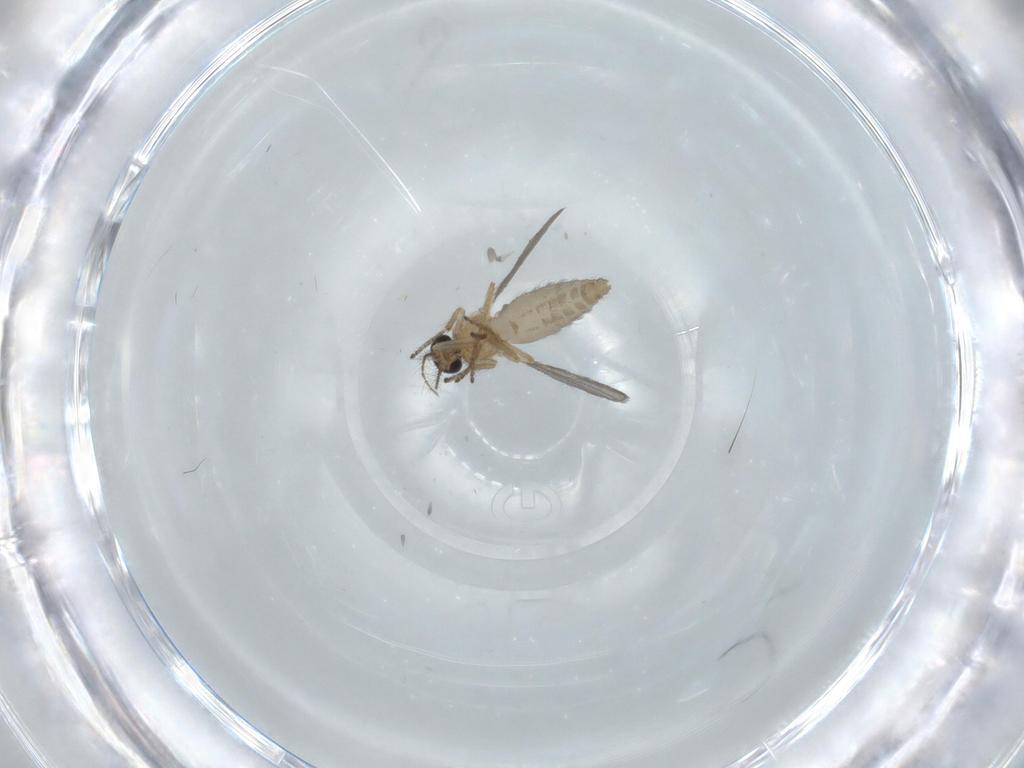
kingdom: Animalia
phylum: Arthropoda
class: Insecta
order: Diptera
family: Ceratopogonidae
